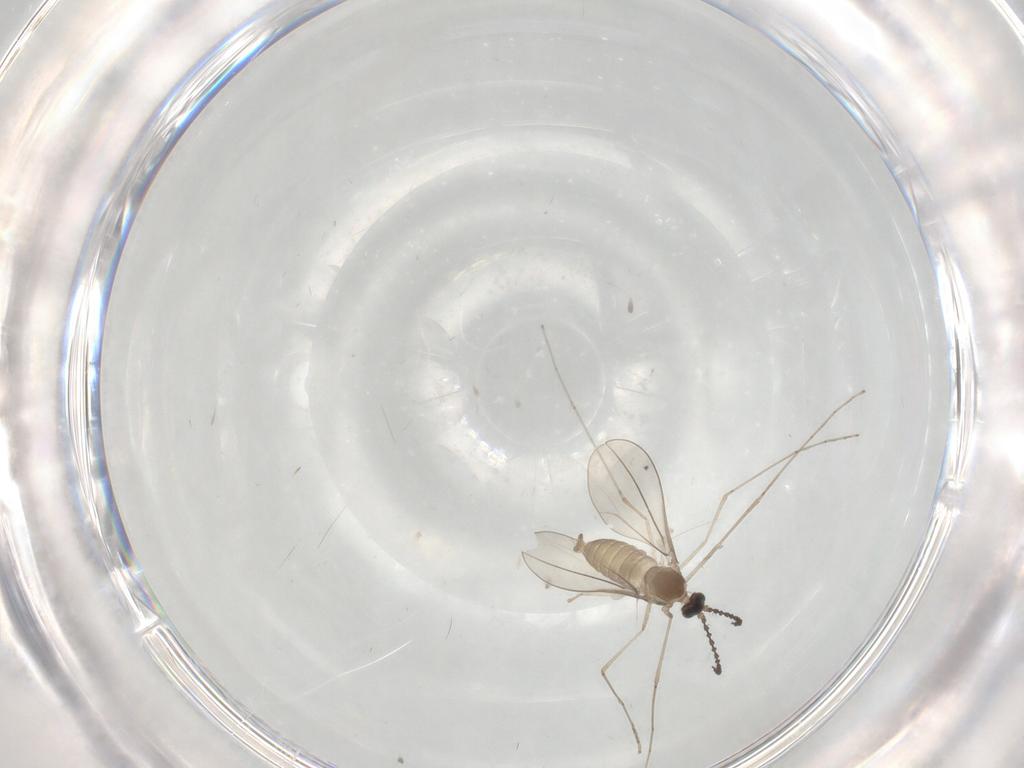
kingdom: Animalia
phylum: Arthropoda
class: Insecta
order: Diptera
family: Cecidomyiidae
